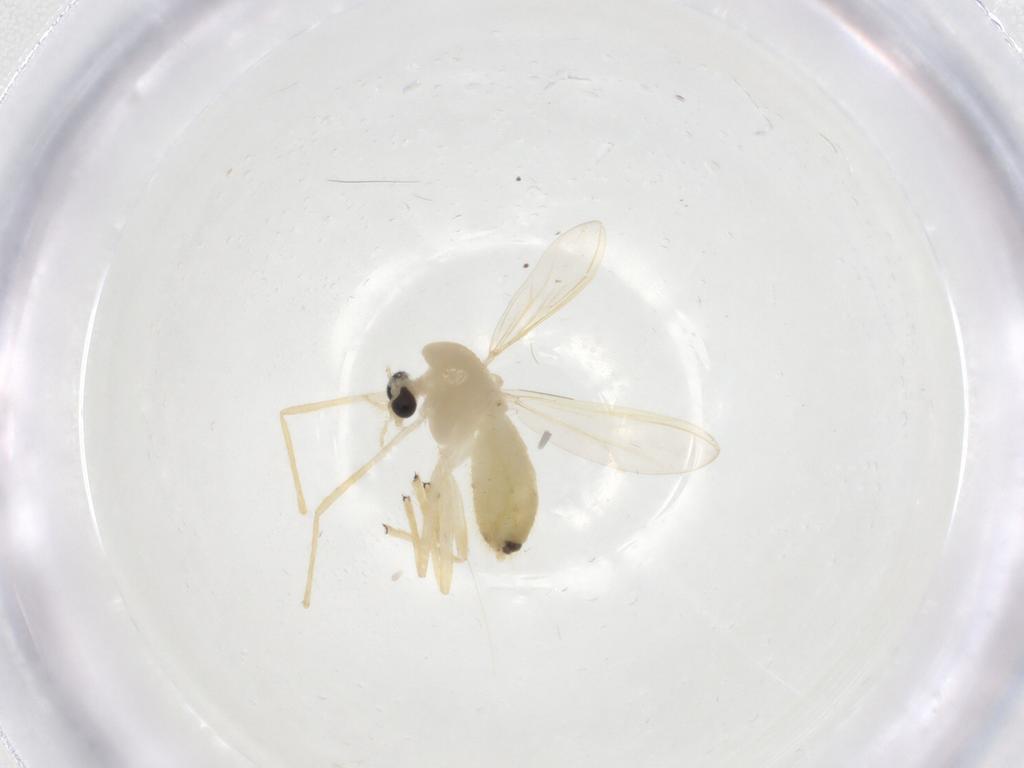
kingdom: Animalia
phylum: Arthropoda
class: Insecta
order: Diptera
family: Chironomidae
